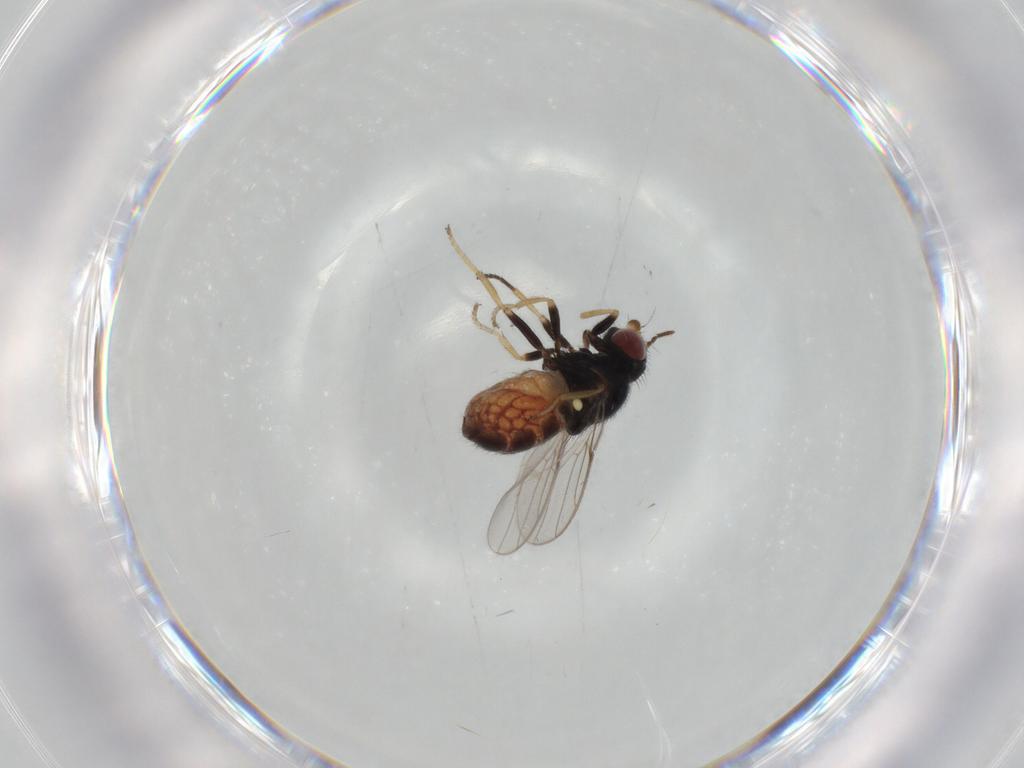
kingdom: Animalia
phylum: Arthropoda
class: Insecta
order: Diptera
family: Chloropidae
